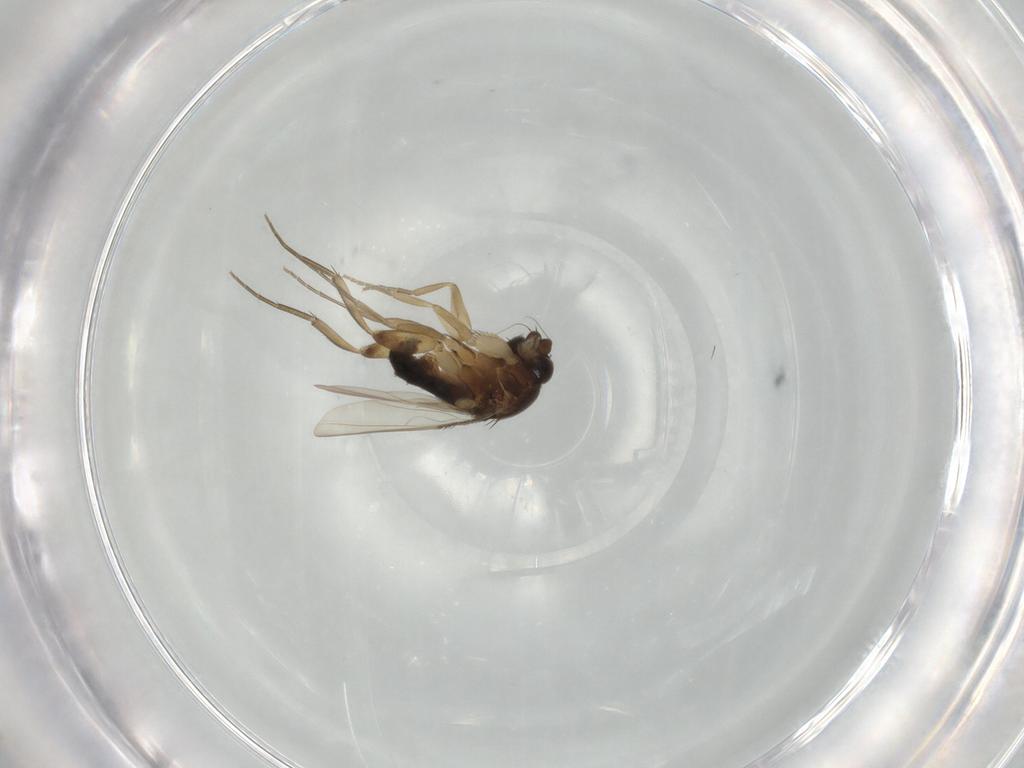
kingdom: Animalia
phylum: Arthropoda
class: Insecta
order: Diptera
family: Phoridae
